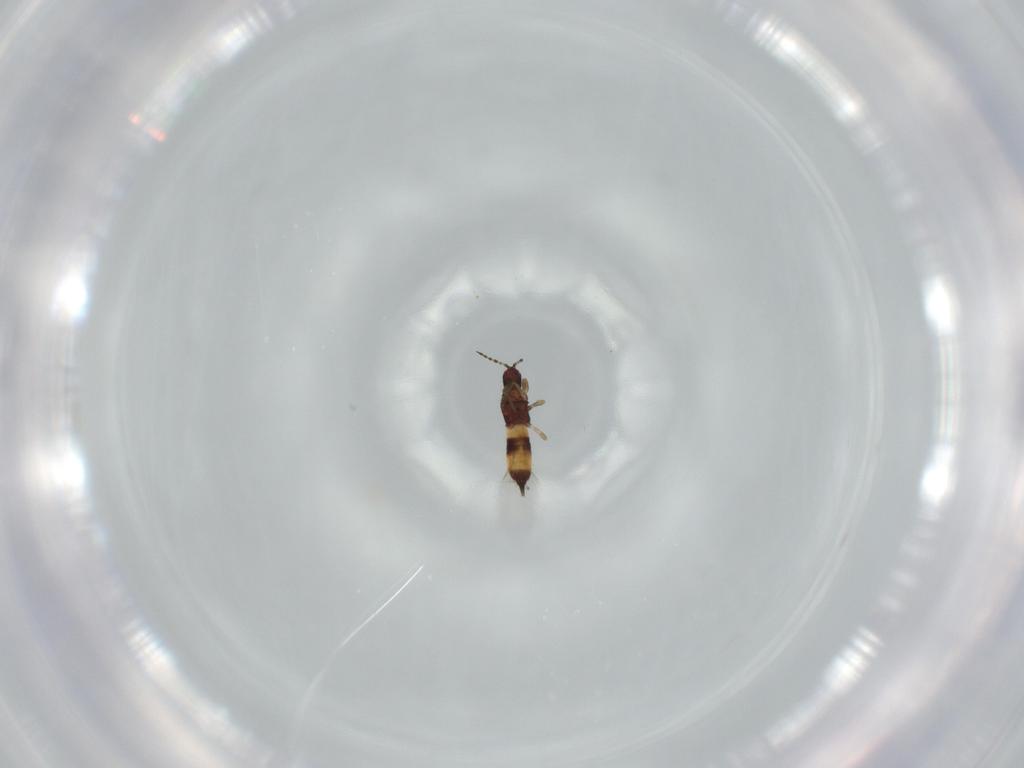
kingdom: Animalia
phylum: Arthropoda
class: Insecta
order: Thysanoptera
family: Phlaeothripidae
